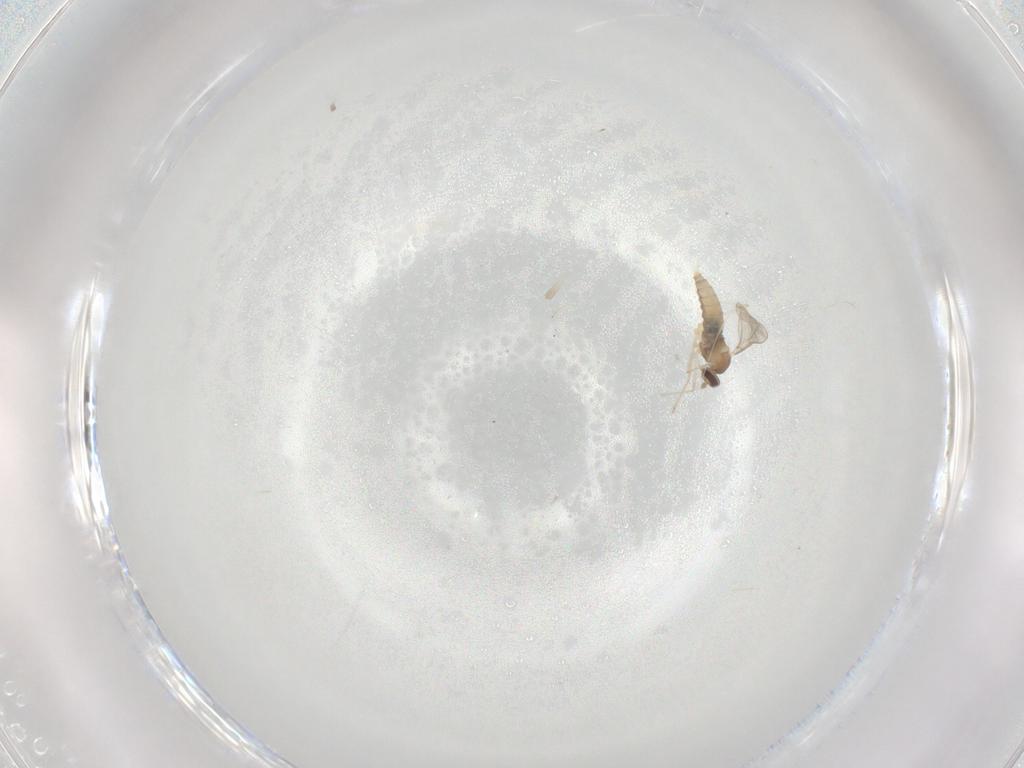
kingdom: Animalia
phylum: Arthropoda
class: Insecta
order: Diptera
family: Cecidomyiidae
